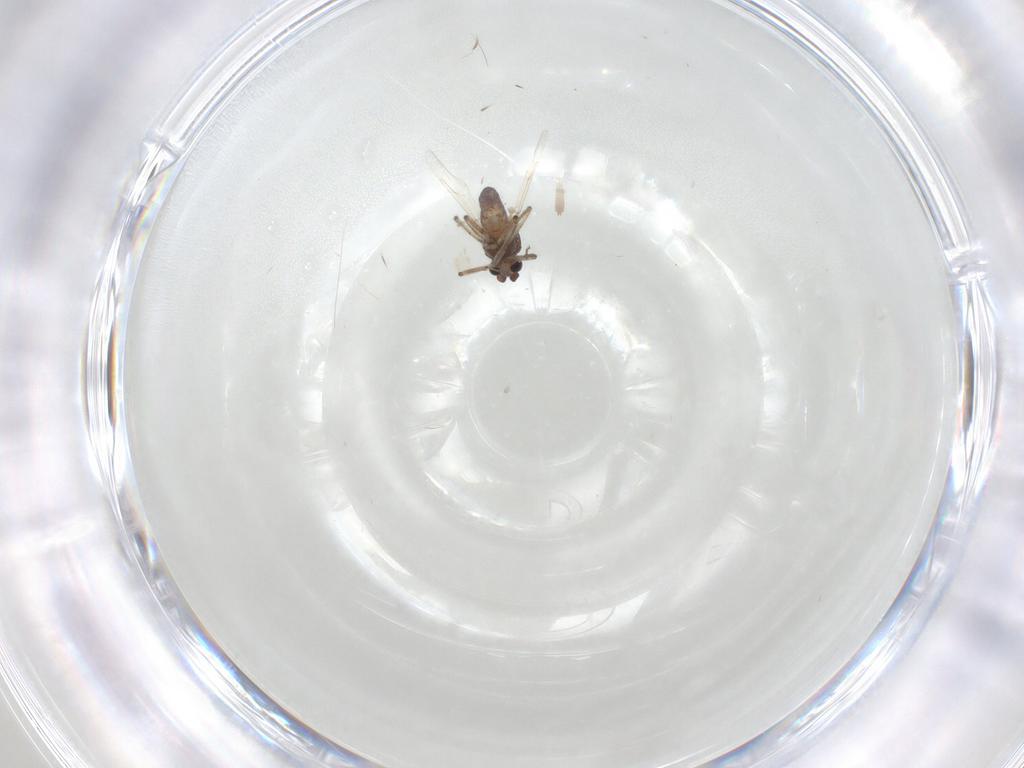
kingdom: Animalia
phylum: Arthropoda
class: Insecta
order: Diptera
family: Ceratopogonidae
